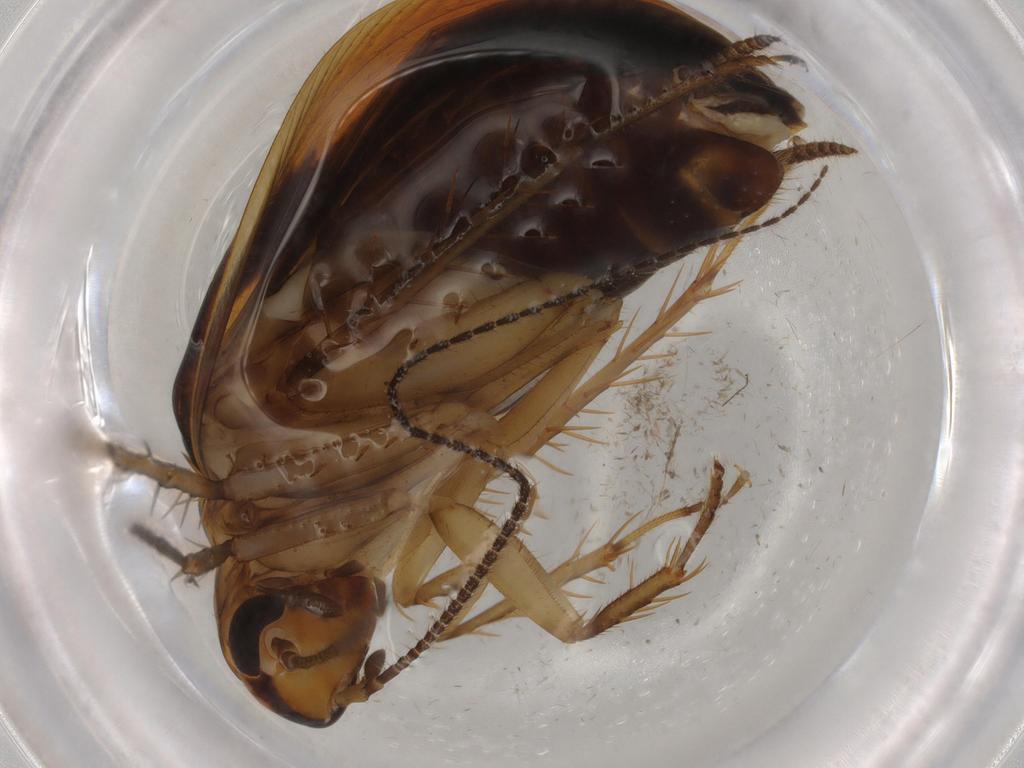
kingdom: Animalia
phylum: Arthropoda
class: Insecta
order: Blattodea
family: Ectobiidae
